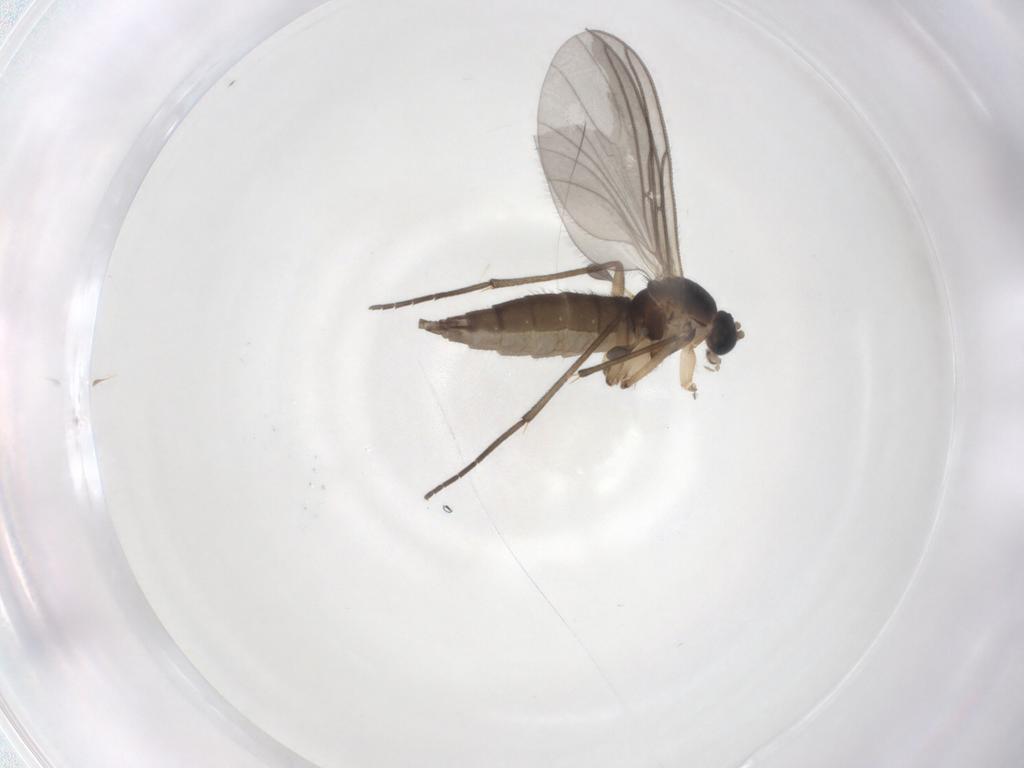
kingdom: Animalia
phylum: Arthropoda
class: Insecta
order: Diptera
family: Sciaridae
